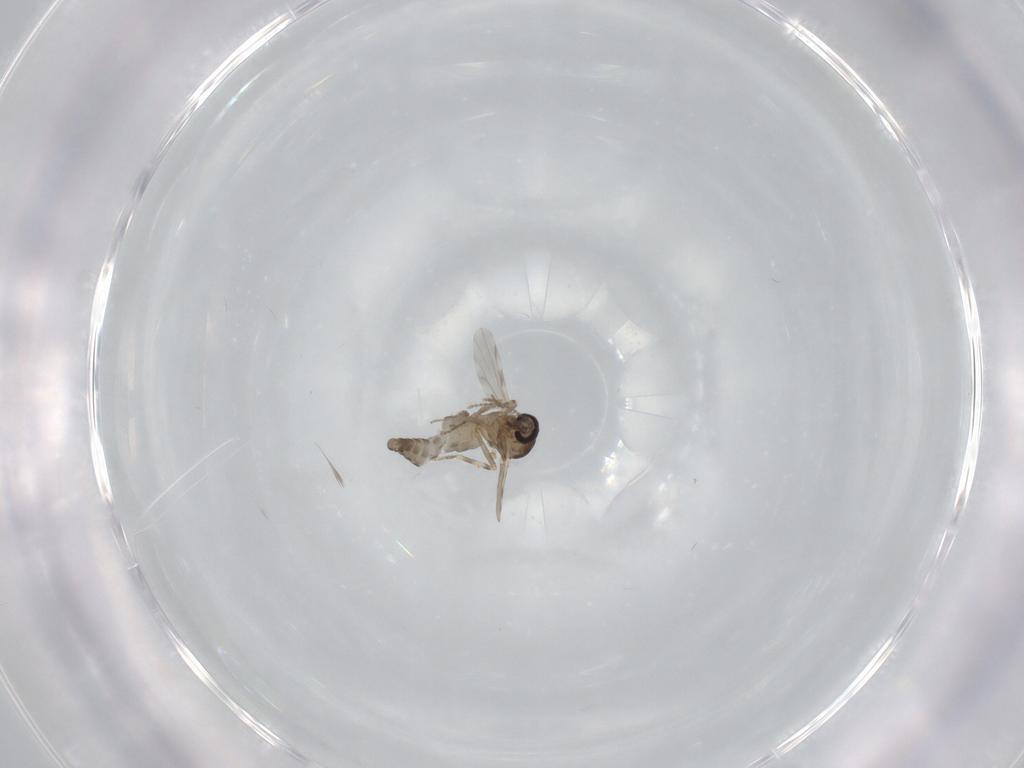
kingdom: Animalia
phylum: Arthropoda
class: Insecta
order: Diptera
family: Ceratopogonidae
